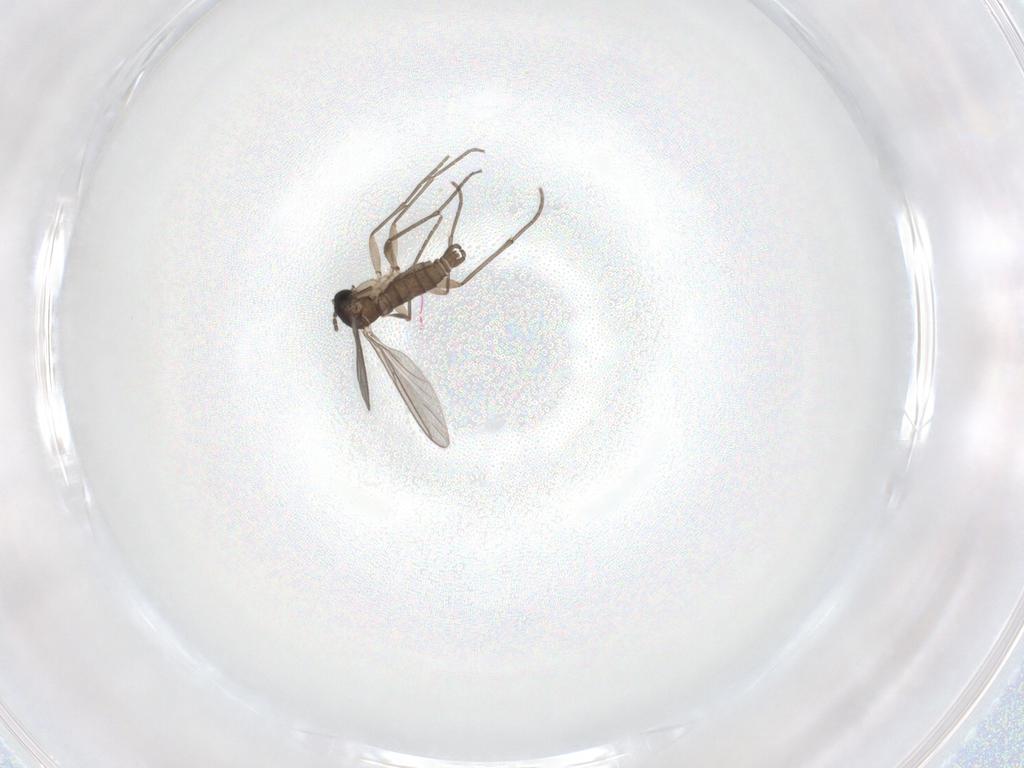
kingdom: Animalia
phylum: Arthropoda
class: Insecta
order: Diptera
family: Sciaridae
